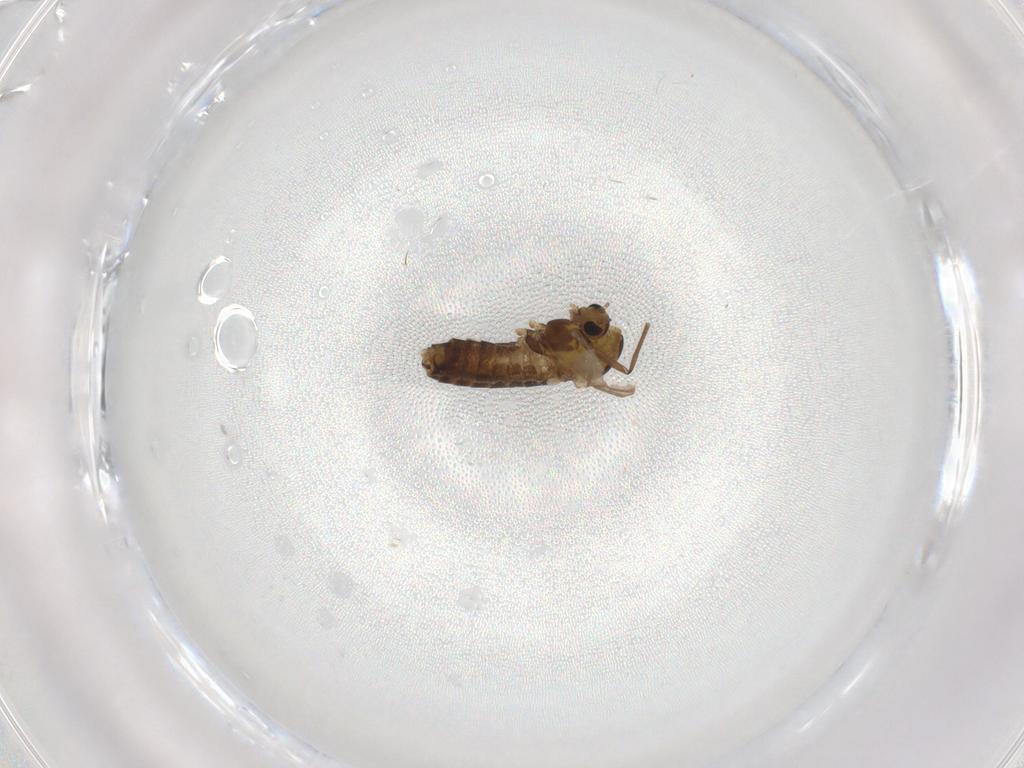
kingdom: Animalia
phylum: Arthropoda
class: Insecta
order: Diptera
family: Chironomidae
